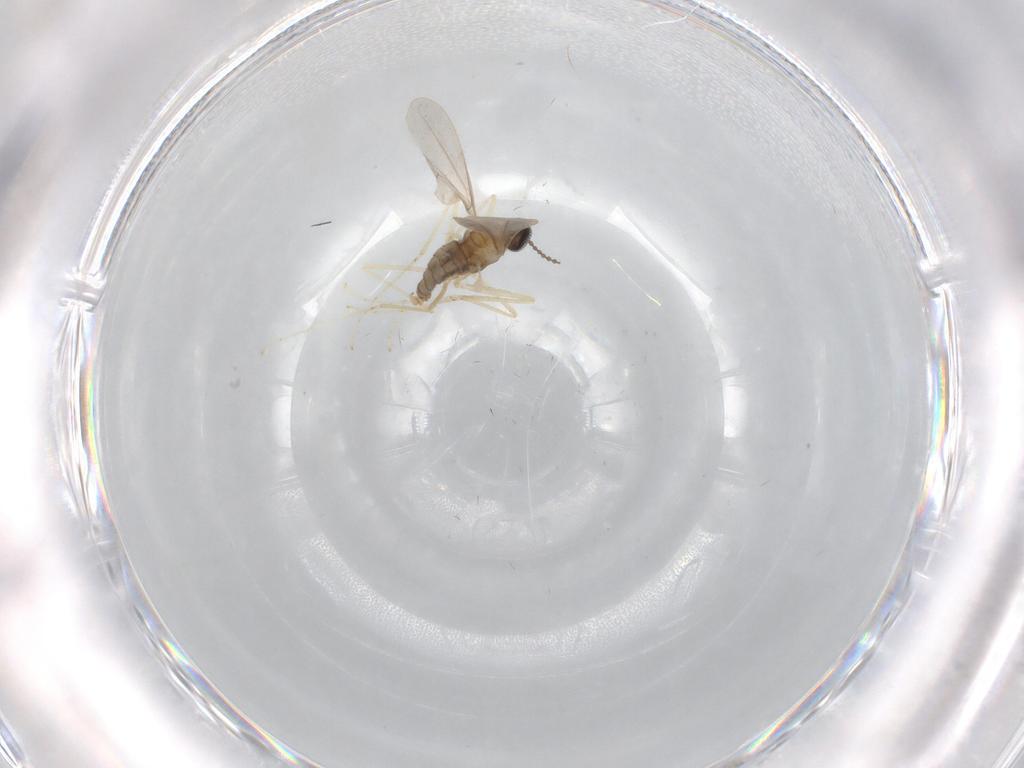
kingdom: Animalia
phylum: Arthropoda
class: Insecta
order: Diptera
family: Cecidomyiidae
